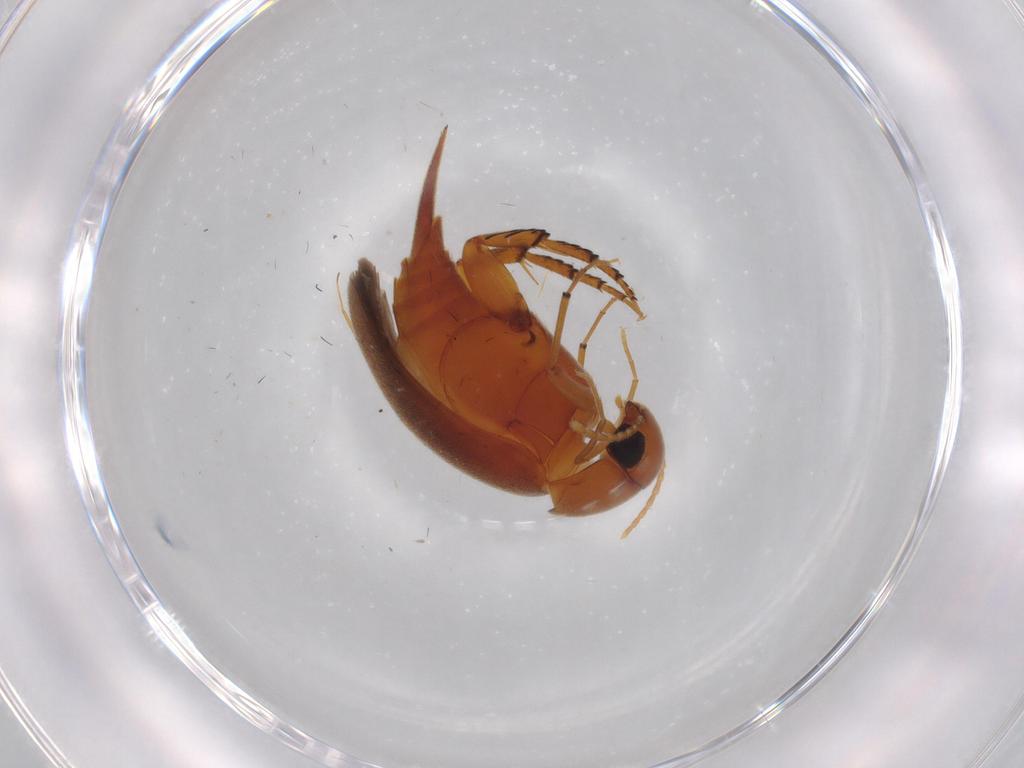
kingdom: Animalia
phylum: Arthropoda
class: Insecta
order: Coleoptera
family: Mordellidae
